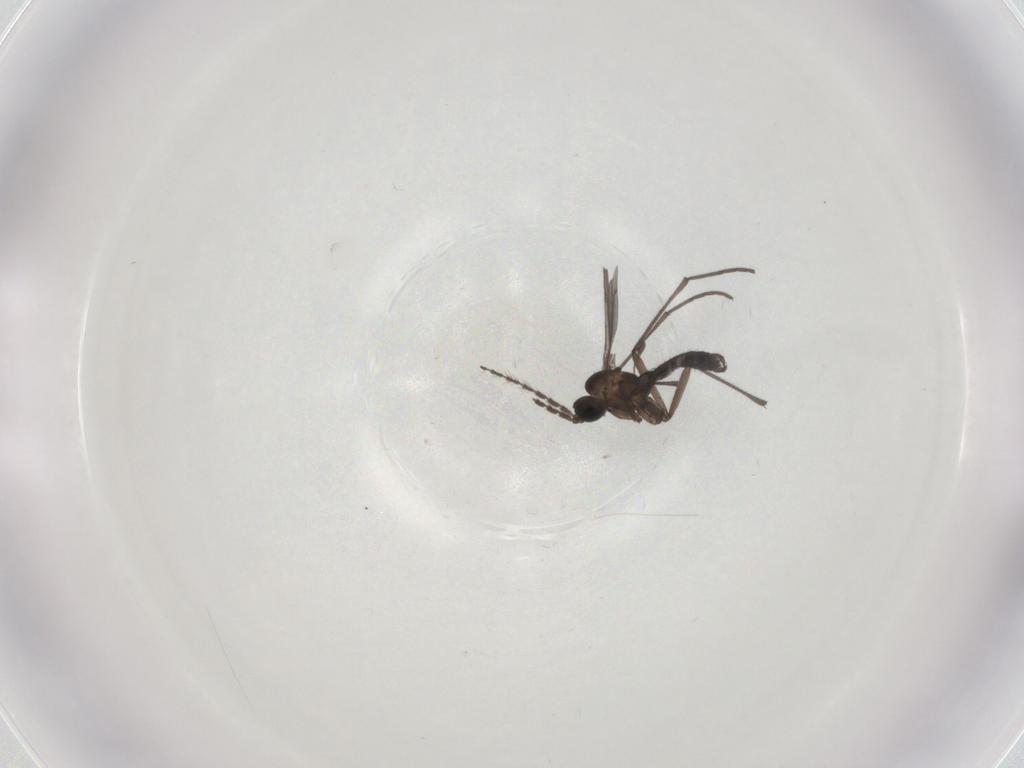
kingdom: Animalia
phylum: Arthropoda
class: Insecta
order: Diptera
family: Sciaridae
